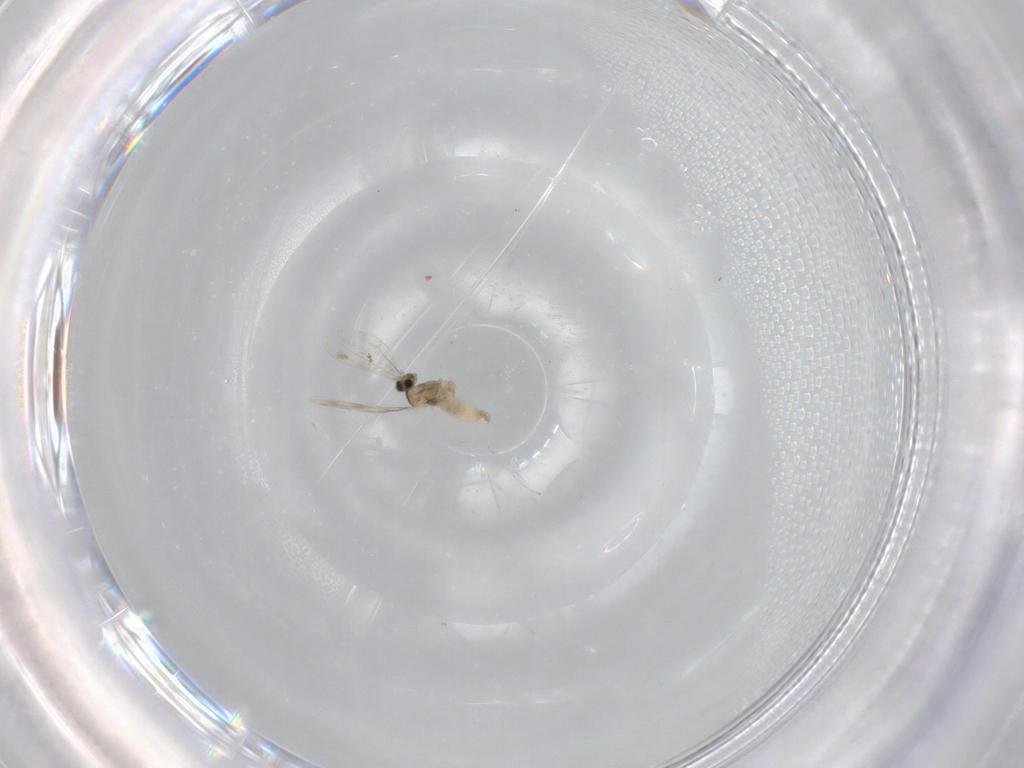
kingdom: Animalia
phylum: Arthropoda
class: Insecta
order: Diptera
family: Cecidomyiidae
